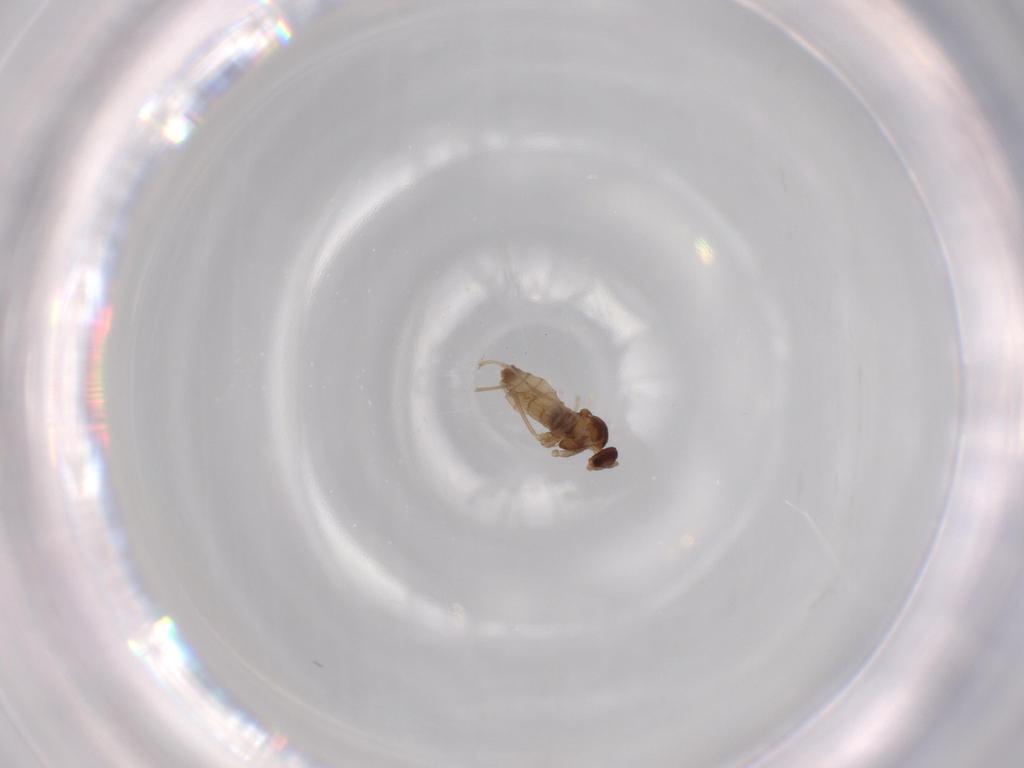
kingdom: Animalia
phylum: Arthropoda
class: Insecta
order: Diptera
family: Cecidomyiidae
